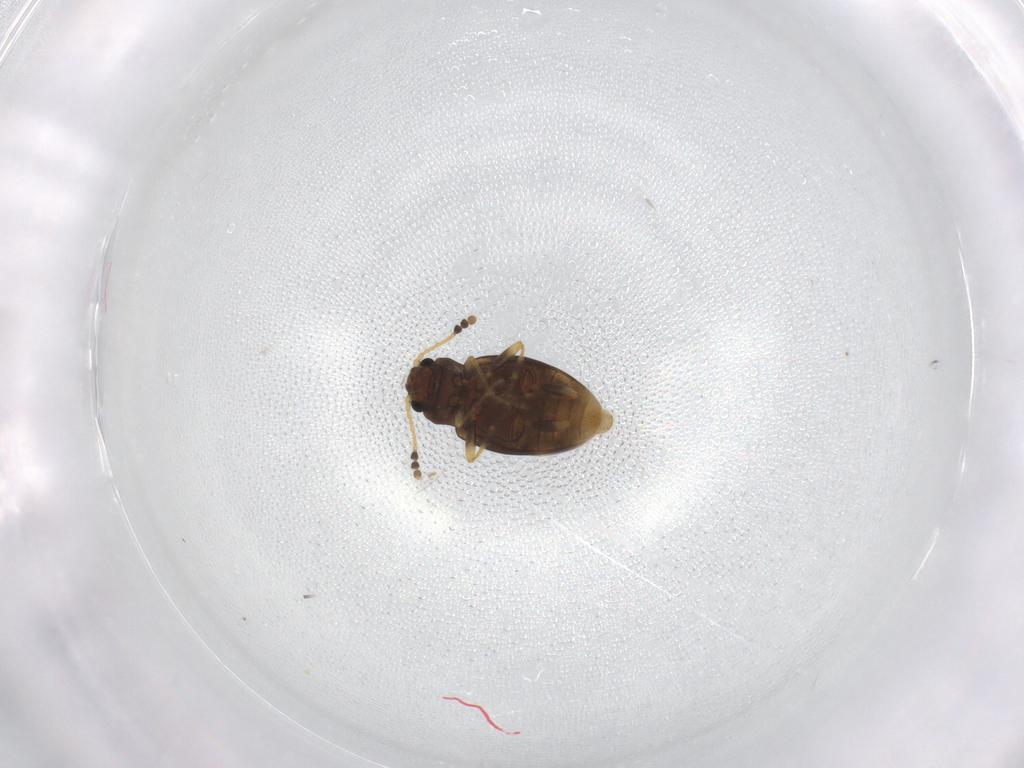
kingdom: Animalia
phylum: Arthropoda
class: Insecta
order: Coleoptera
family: Erotylidae
